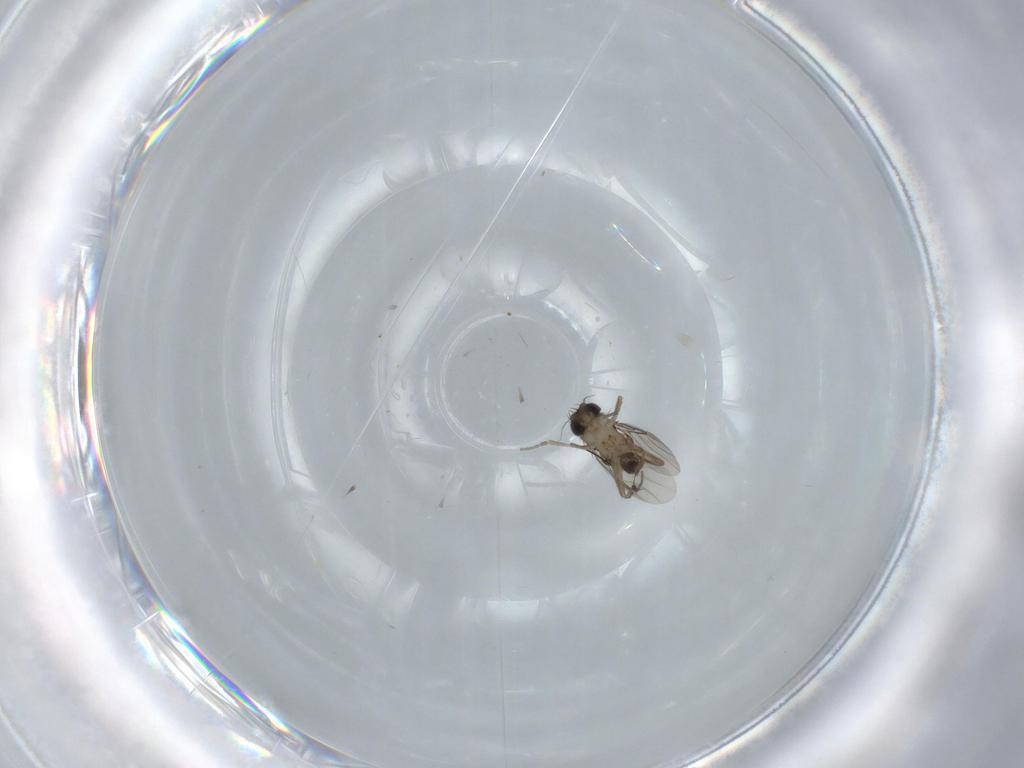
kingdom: Animalia
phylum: Arthropoda
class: Insecta
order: Diptera
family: Phoridae
